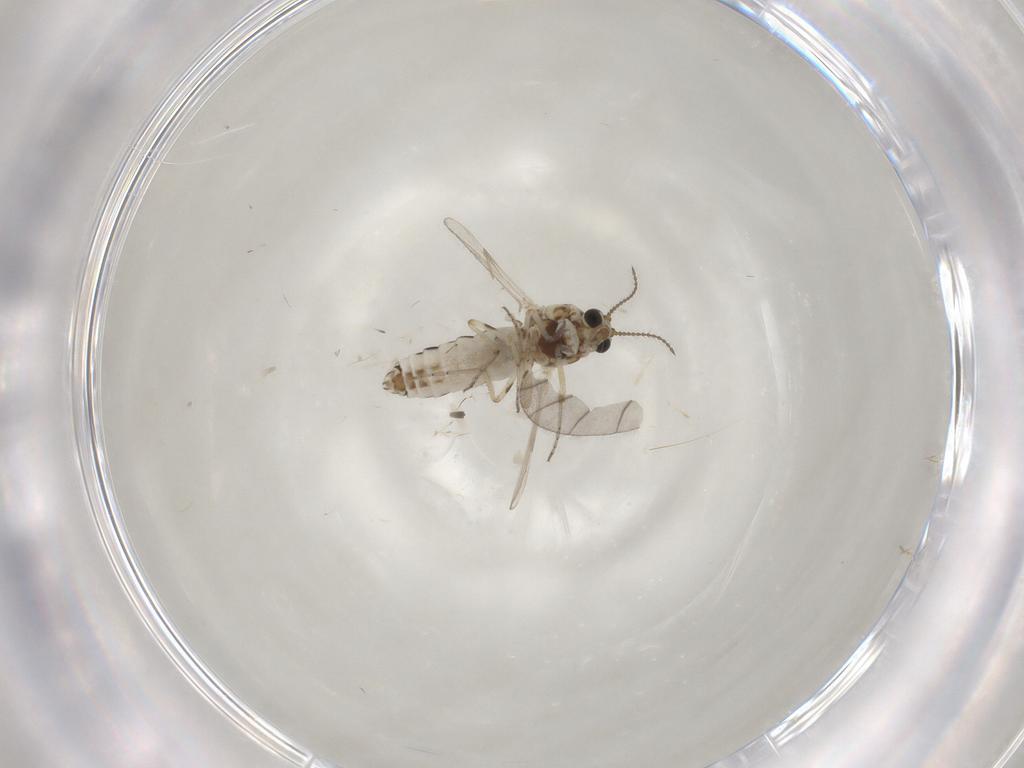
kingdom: Animalia
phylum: Arthropoda
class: Insecta
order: Diptera
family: Ceratopogonidae
